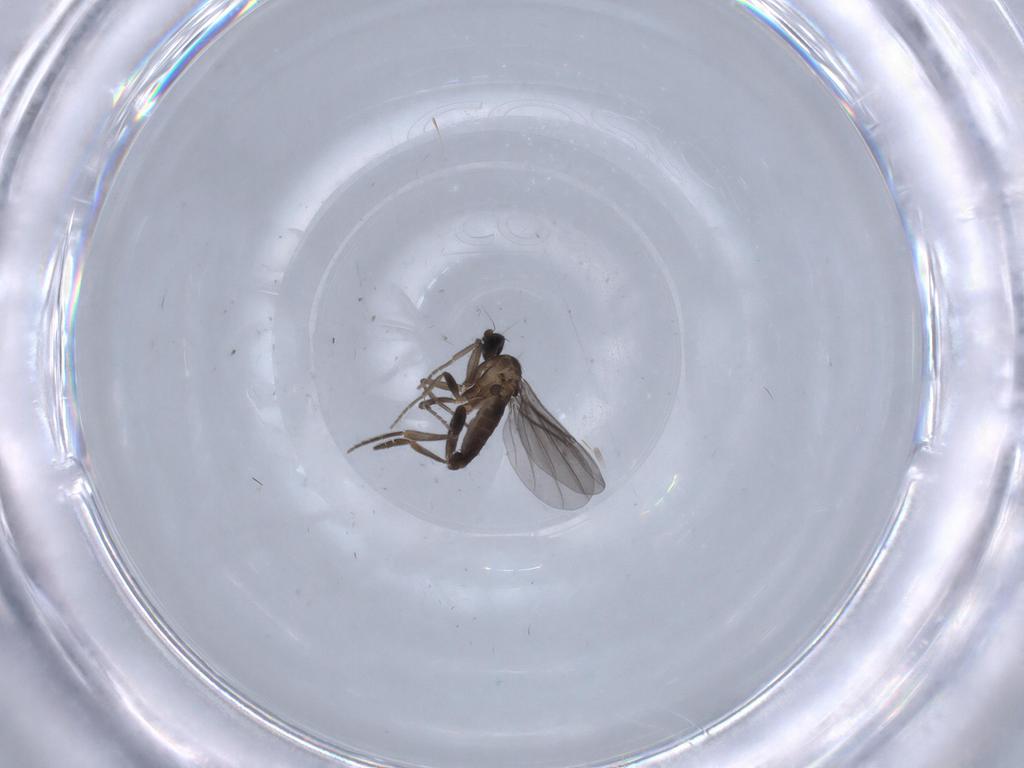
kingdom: Animalia
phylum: Arthropoda
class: Insecta
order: Diptera
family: Phoridae
